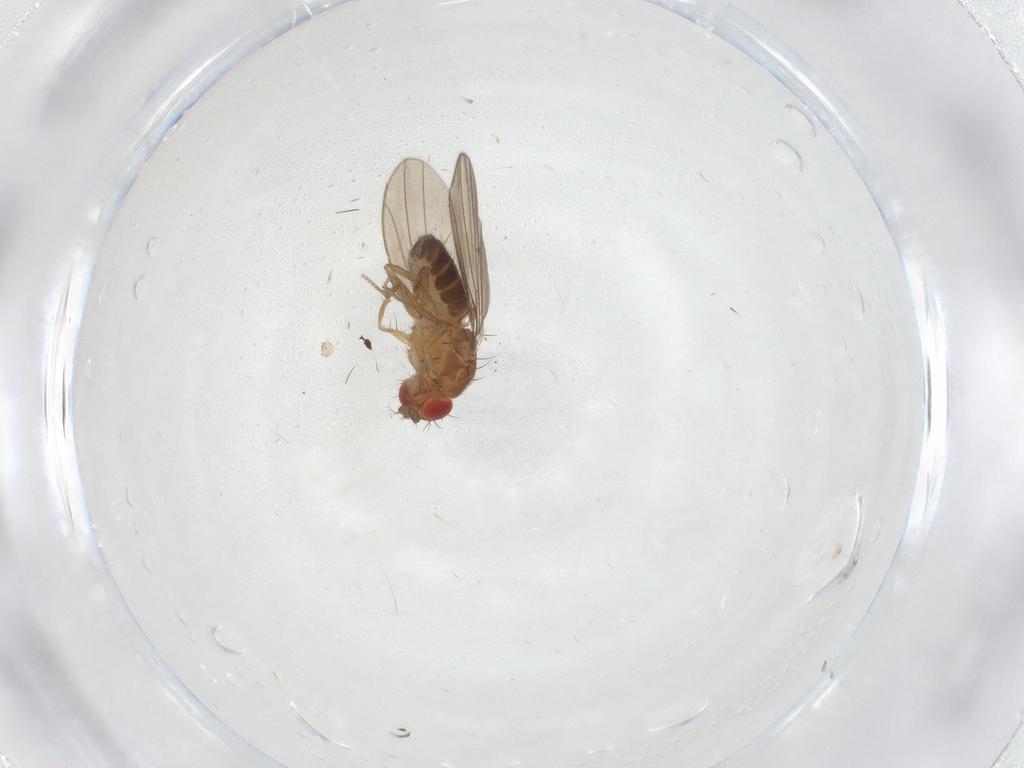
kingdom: Animalia
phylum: Arthropoda
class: Insecta
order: Diptera
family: Drosophilidae
